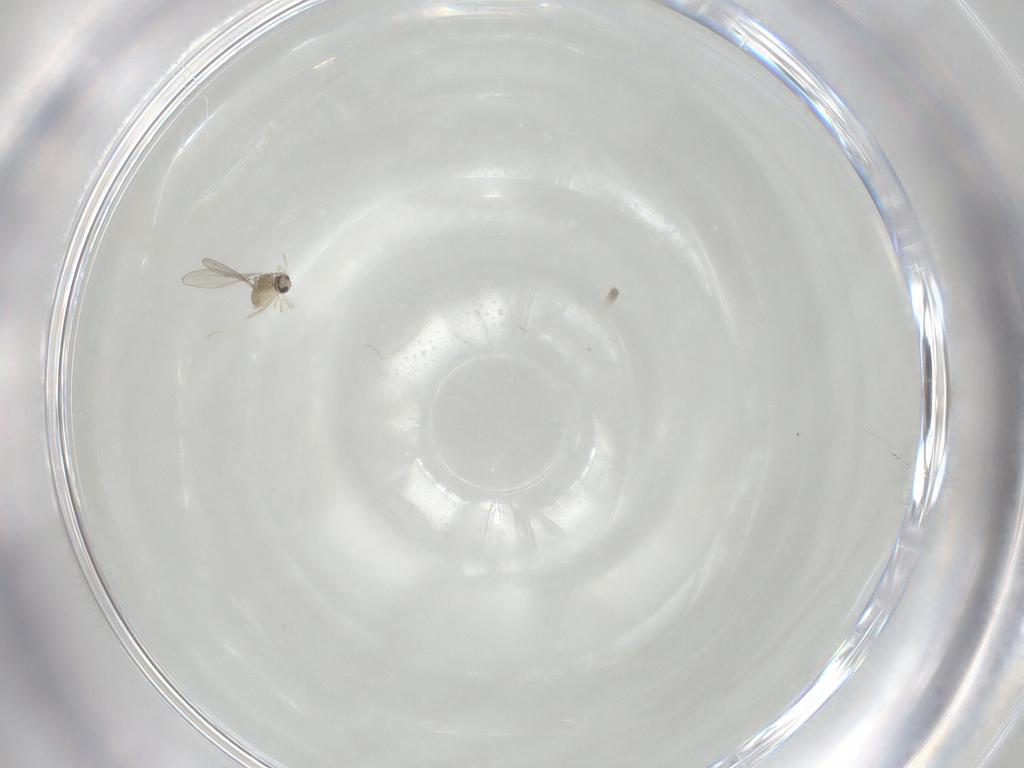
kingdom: Animalia
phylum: Arthropoda
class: Insecta
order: Diptera
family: Cecidomyiidae
